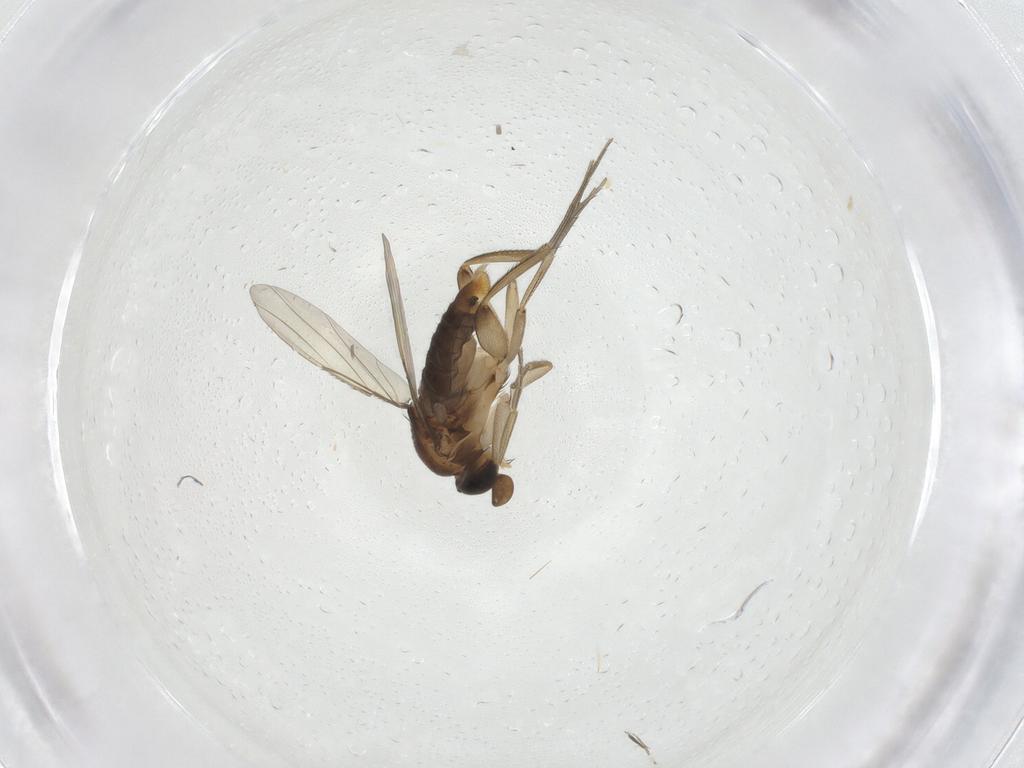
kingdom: Animalia
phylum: Arthropoda
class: Insecta
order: Diptera
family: Phoridae
